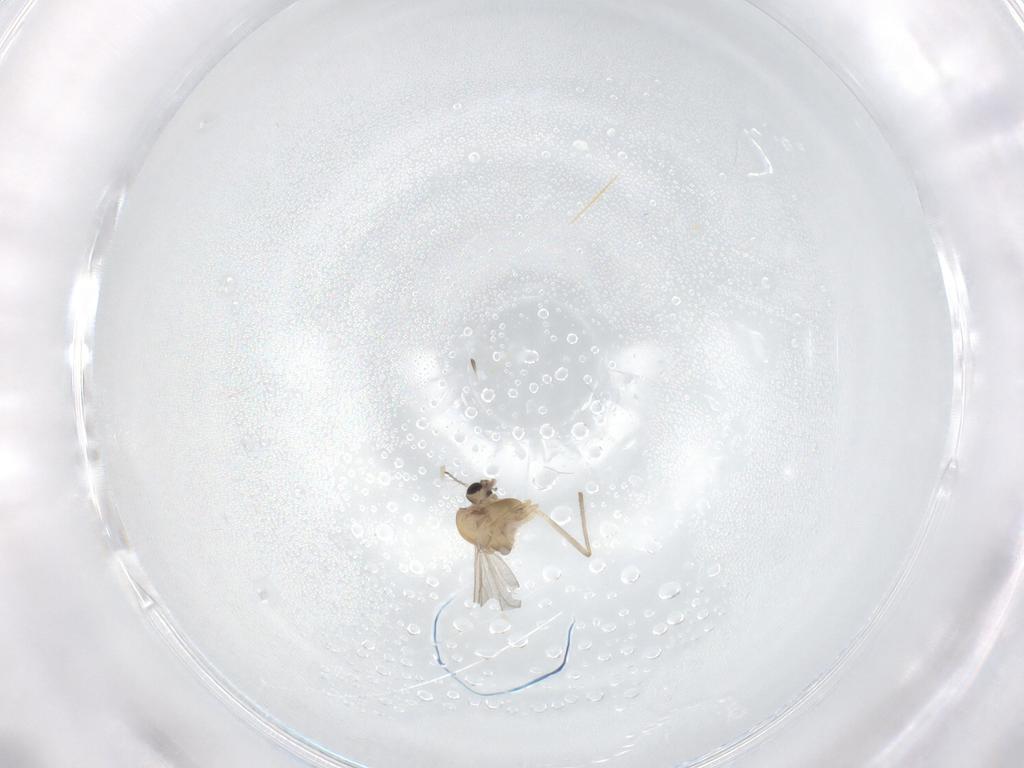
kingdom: Animalia
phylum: Arthropoda
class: Insecta
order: Diptera
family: Chironomidae
